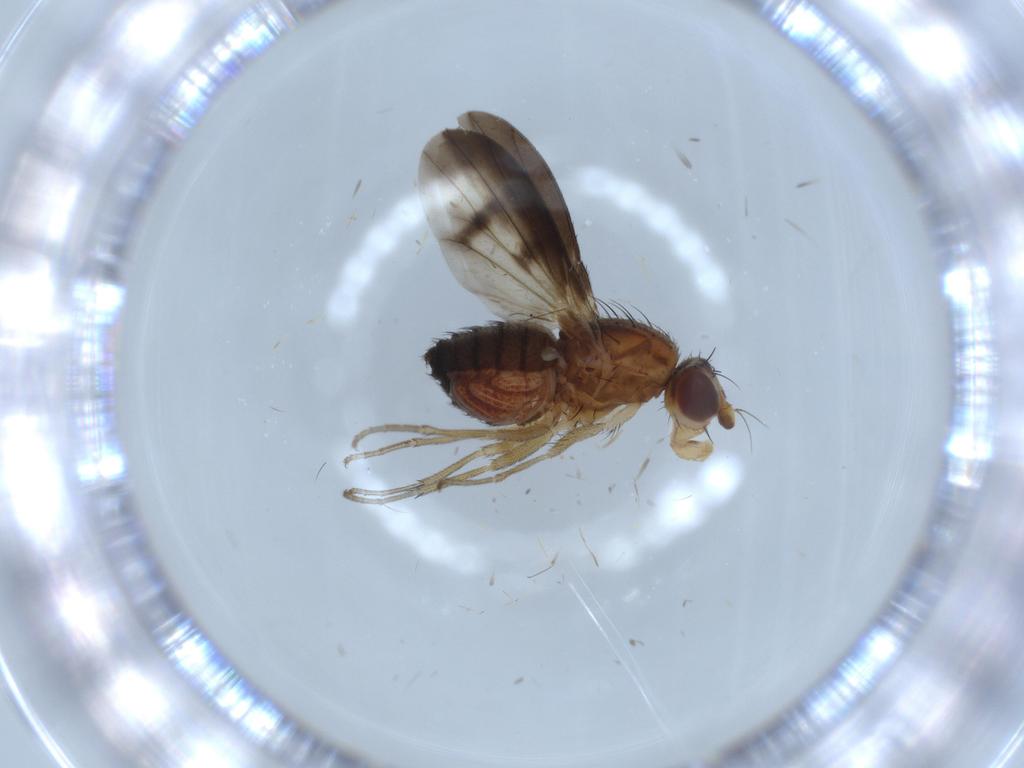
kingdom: Animalia
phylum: Arthropoda
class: Insecta
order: Diptera
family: Heleomyzidae
